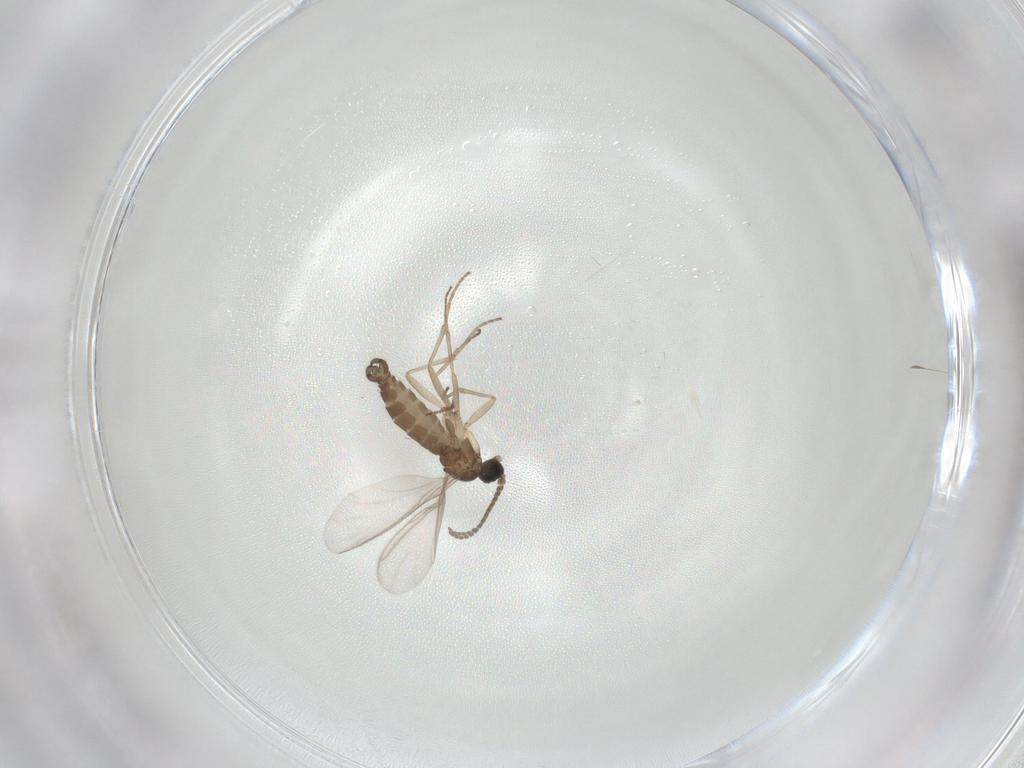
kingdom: Animalia
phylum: Arthropoda
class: Insecta
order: Diptera
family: Sciaridae
